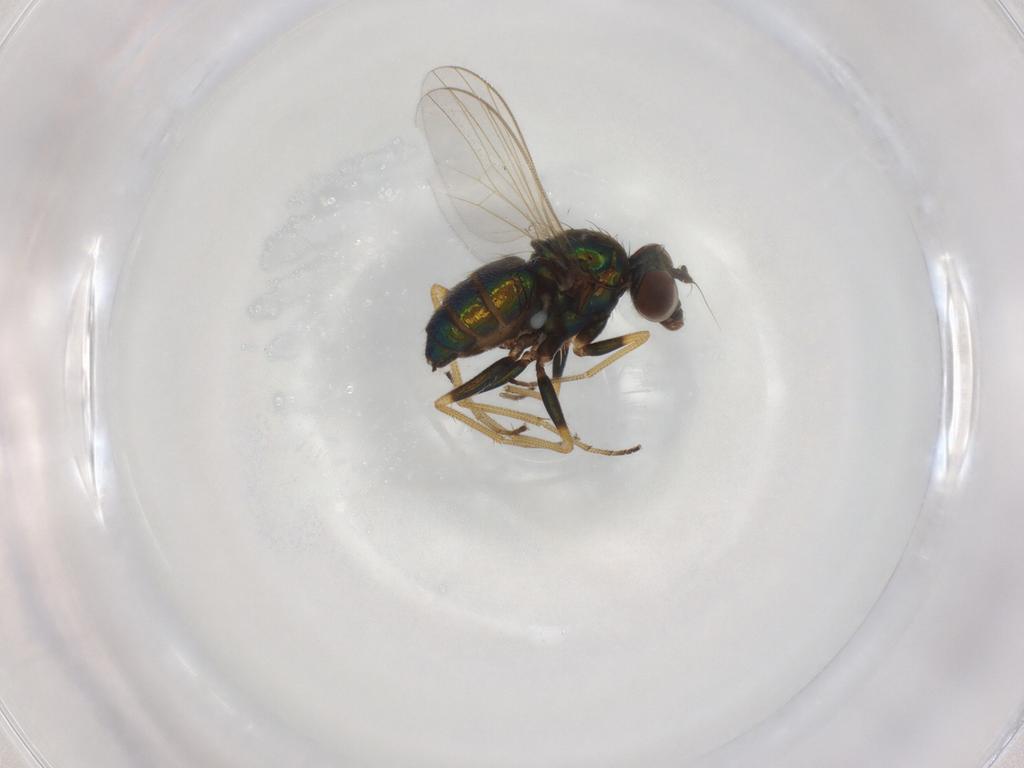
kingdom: Animalia
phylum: Arthropoda
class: Insecta
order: Diptera
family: Dolichopodidae
